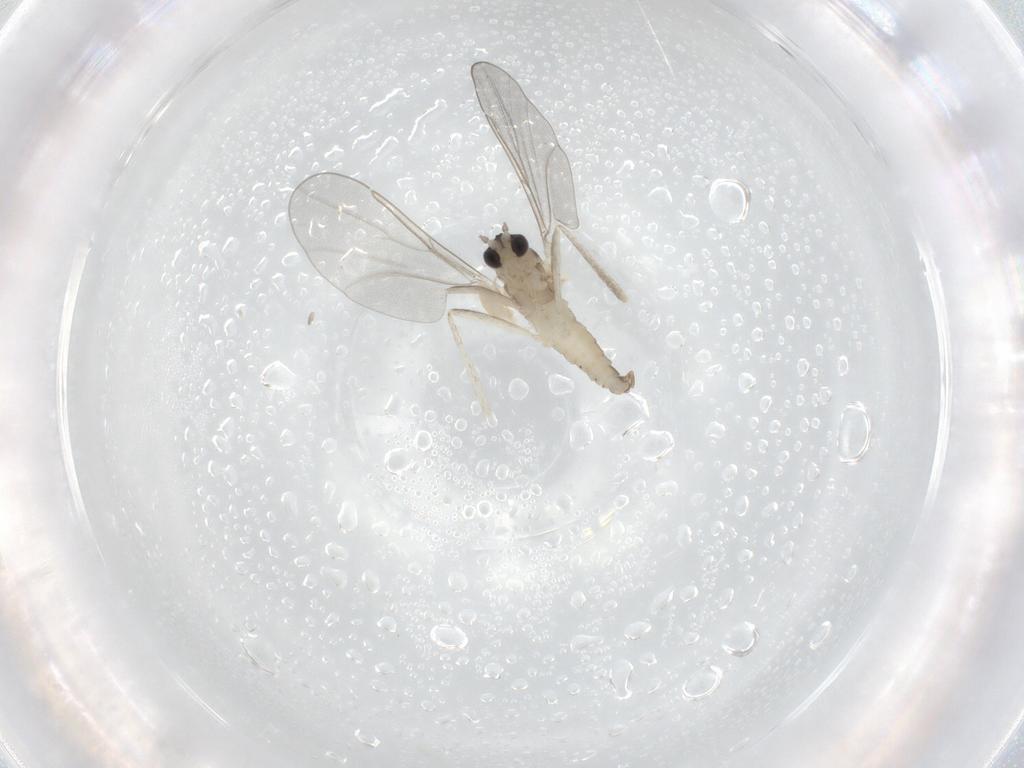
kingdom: Animalia
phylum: Arthropoda
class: Insecta
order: Diptera
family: Cecidomyiidae
